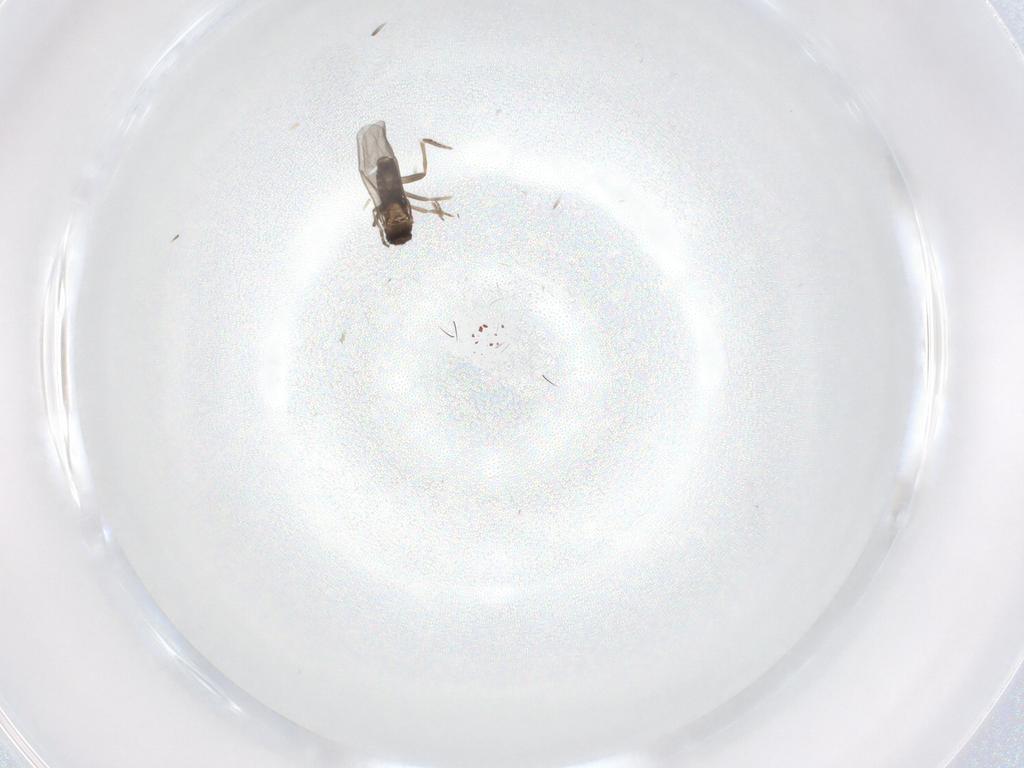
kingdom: Animalia
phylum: Arthropoda
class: Insecta
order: Diptera
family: Cecidomyiidae
